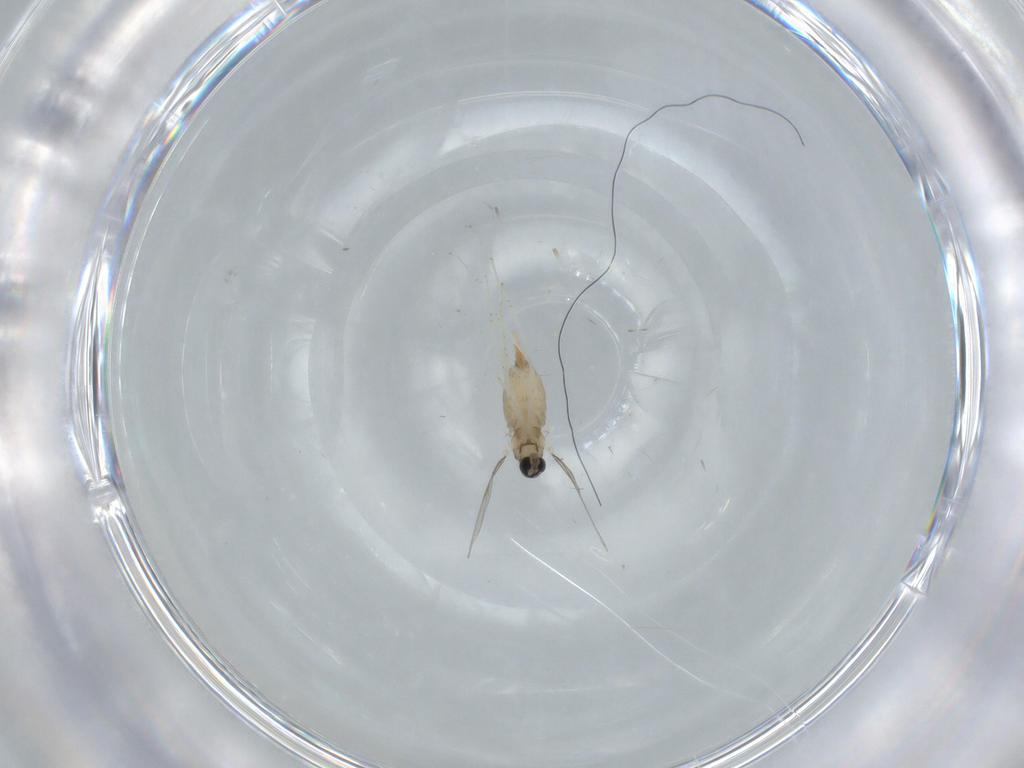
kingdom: Animalia
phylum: Arthropoda
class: Insecta
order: Diptera
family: Cecidomyiidae
